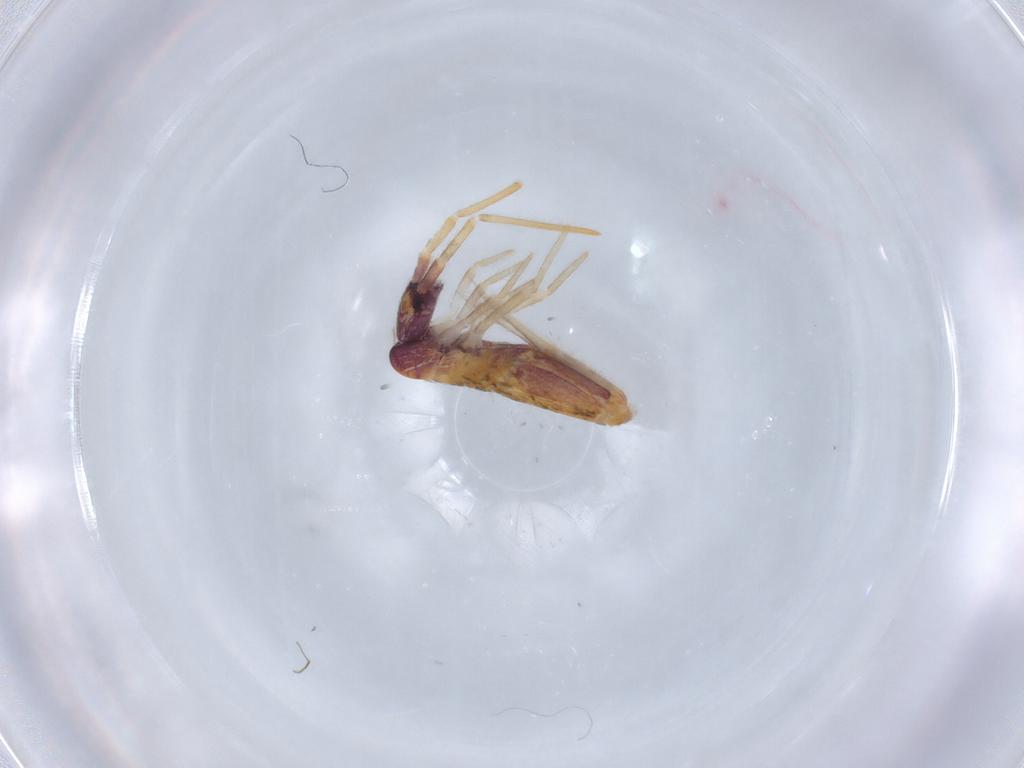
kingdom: Animalia
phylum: Arthropoda
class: Collembola
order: Entomobryomorpha
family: Entomobryidae
